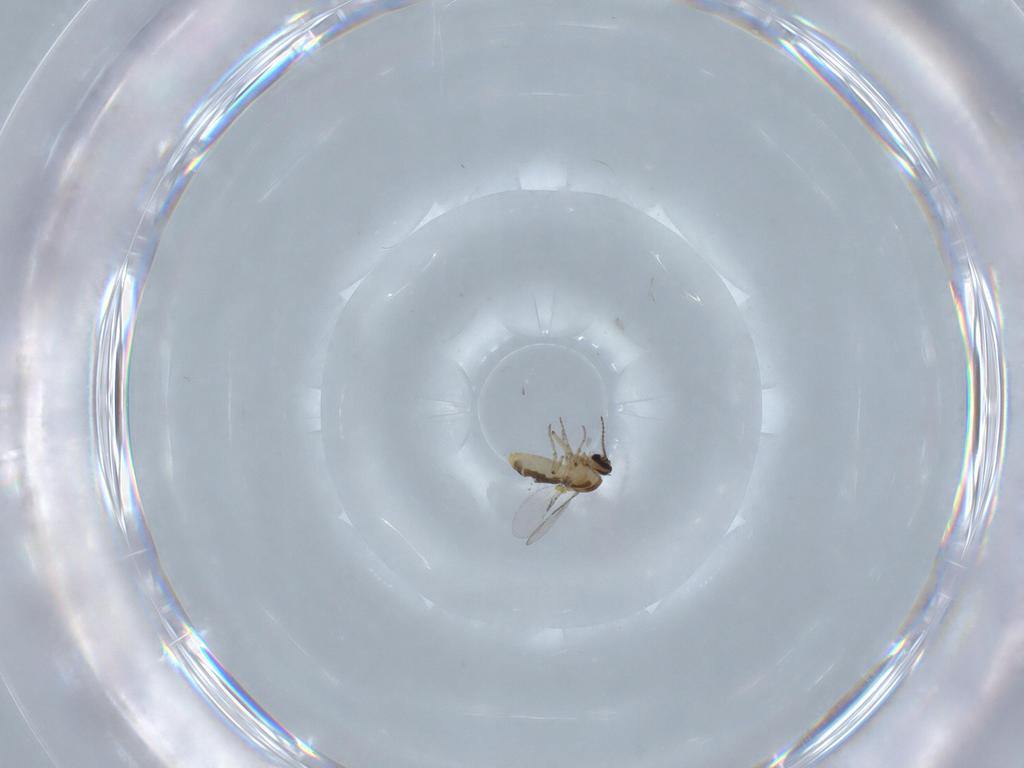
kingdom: Animalia
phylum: Arthropoda
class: Insecta
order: Diptera
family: Ceratopogonidae
